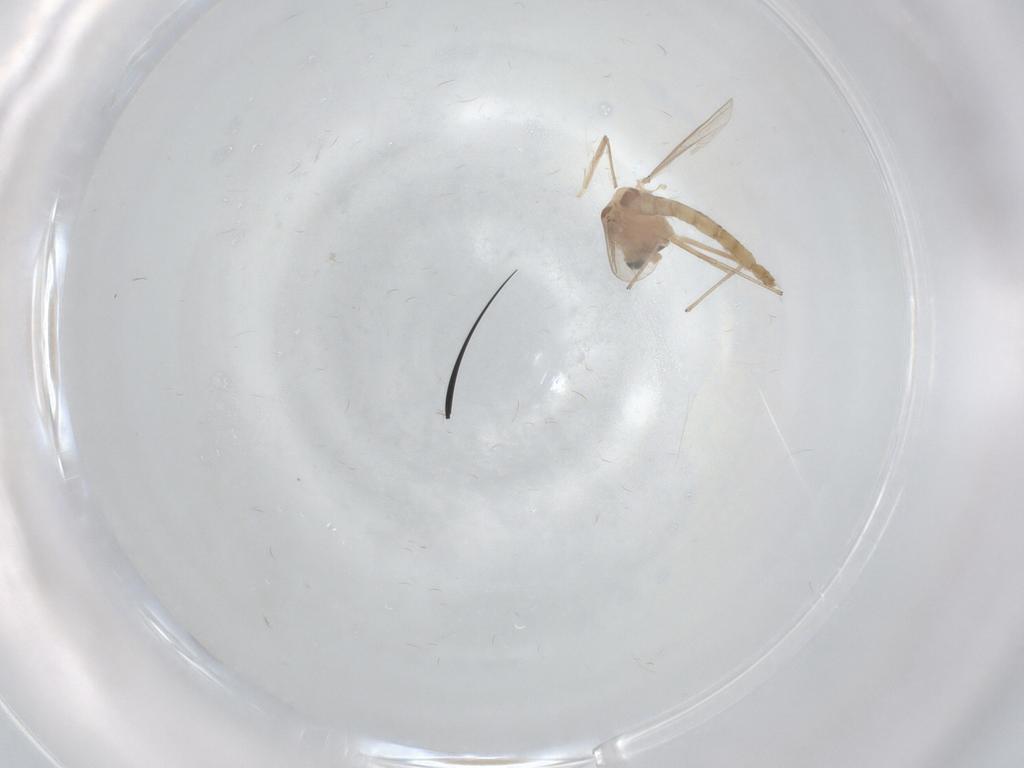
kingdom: Animalia
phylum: Arthropoda
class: Insecta
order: Diptera
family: Chironomidae
